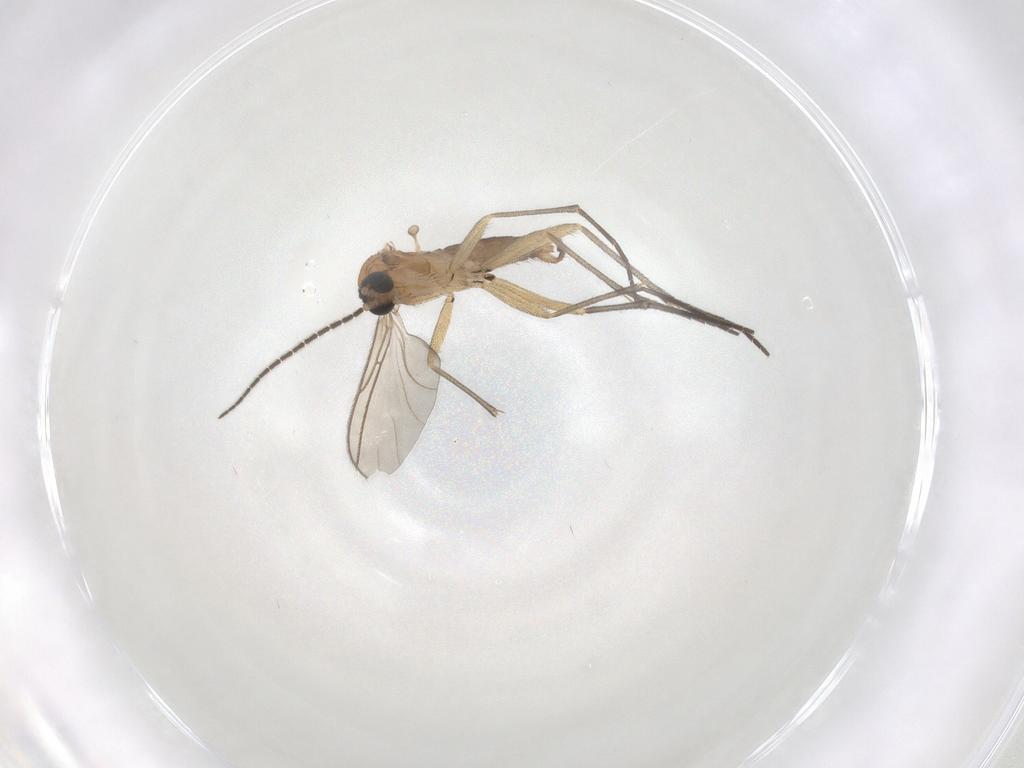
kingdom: Animalia
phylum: Arthropoda
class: Insecta
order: Diptera
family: Sciaridae
